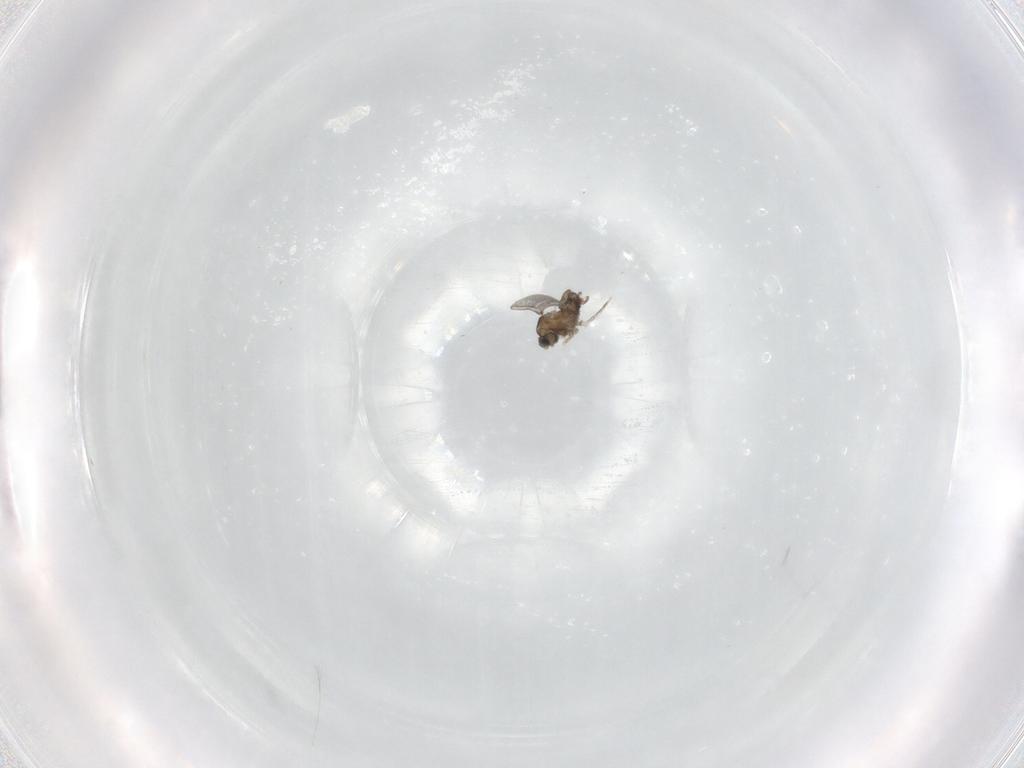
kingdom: Animalia
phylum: Arthropoda
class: Insecta
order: Diptera
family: Cecidomyiidae
